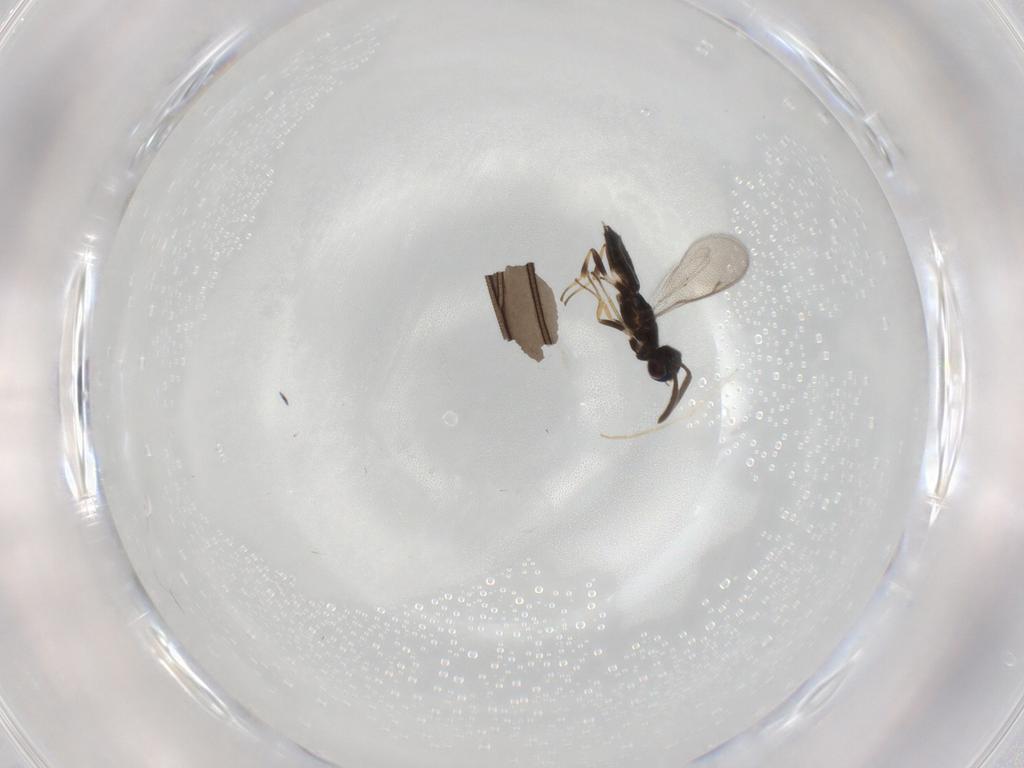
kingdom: Animalia
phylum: Arthropoda
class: Insecta
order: Hymenoptera
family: Eupelmidae
